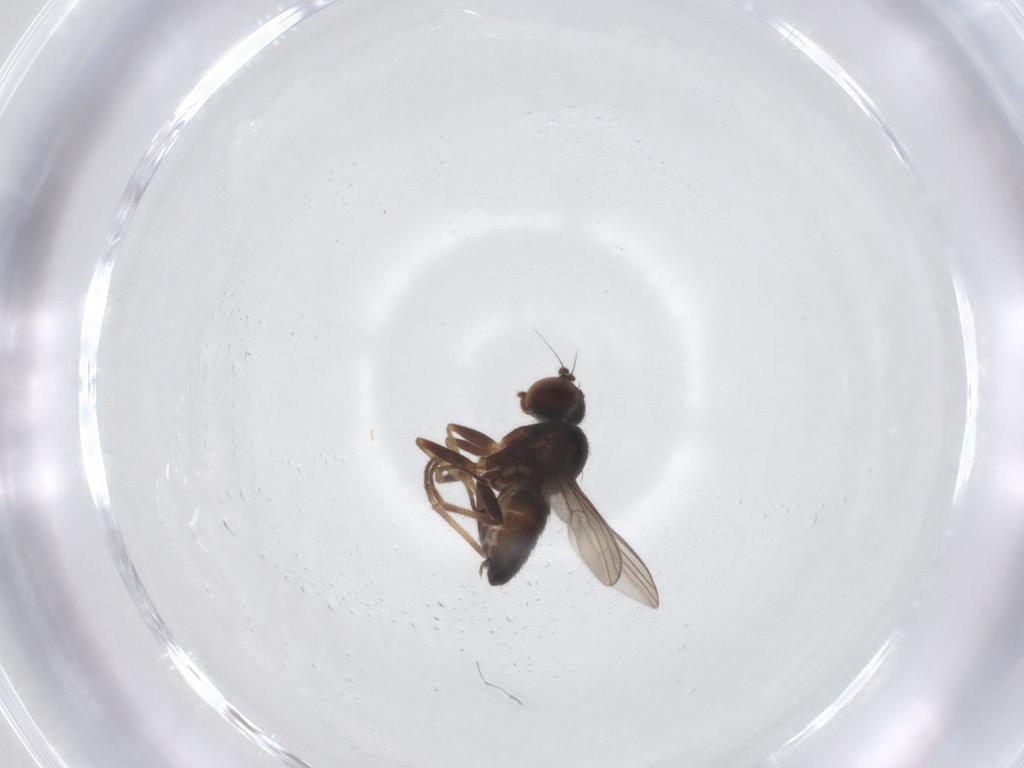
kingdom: Animalia
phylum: Arthropoda
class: Insecta
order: Diptera
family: Dolichopodidae
